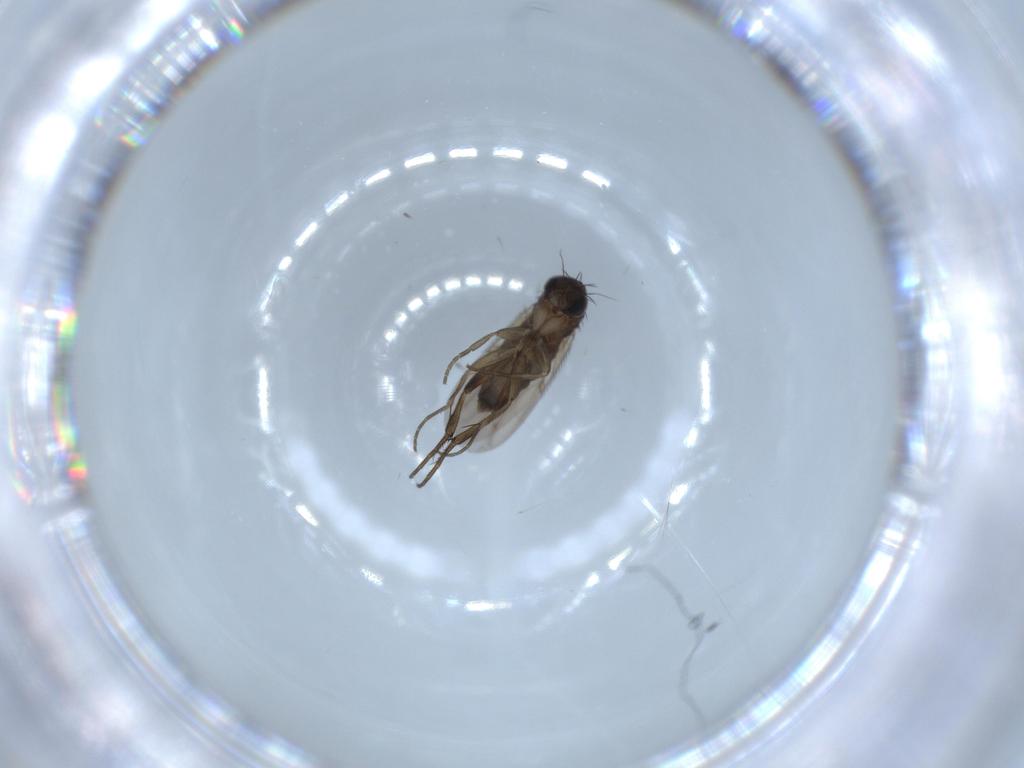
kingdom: Animalia
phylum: Arthropoda
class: Insecta
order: Diptera
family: Phoridae
